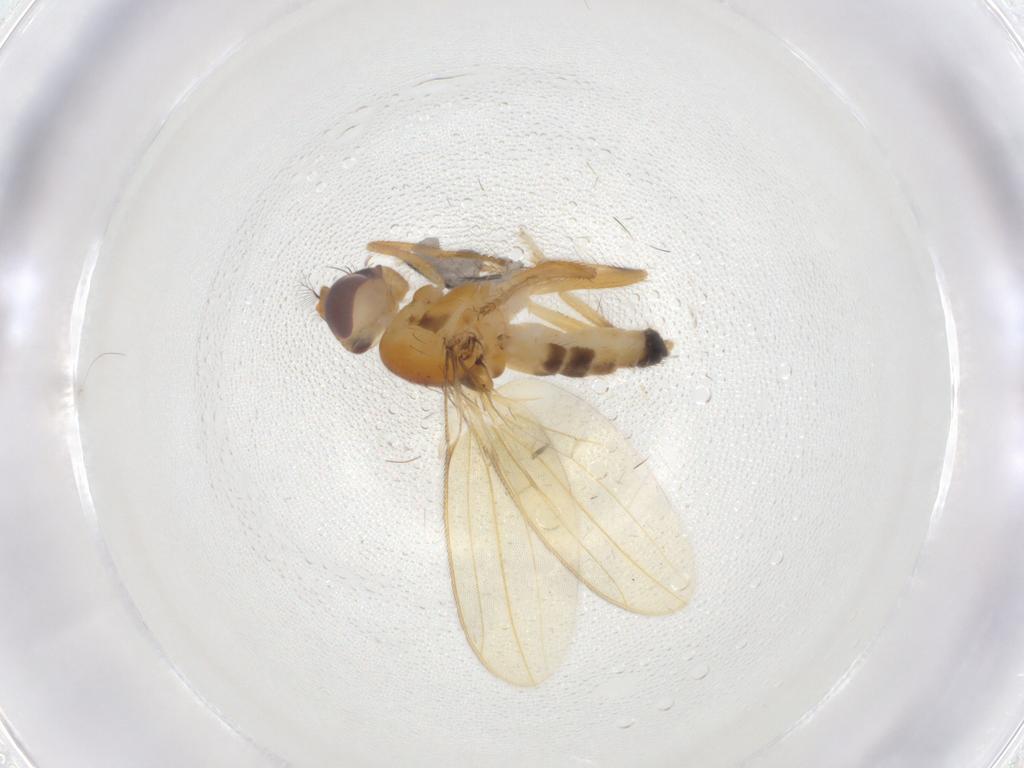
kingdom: Animalia
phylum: Arthropoda
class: Insecta
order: Diptera
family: Periscelididae
